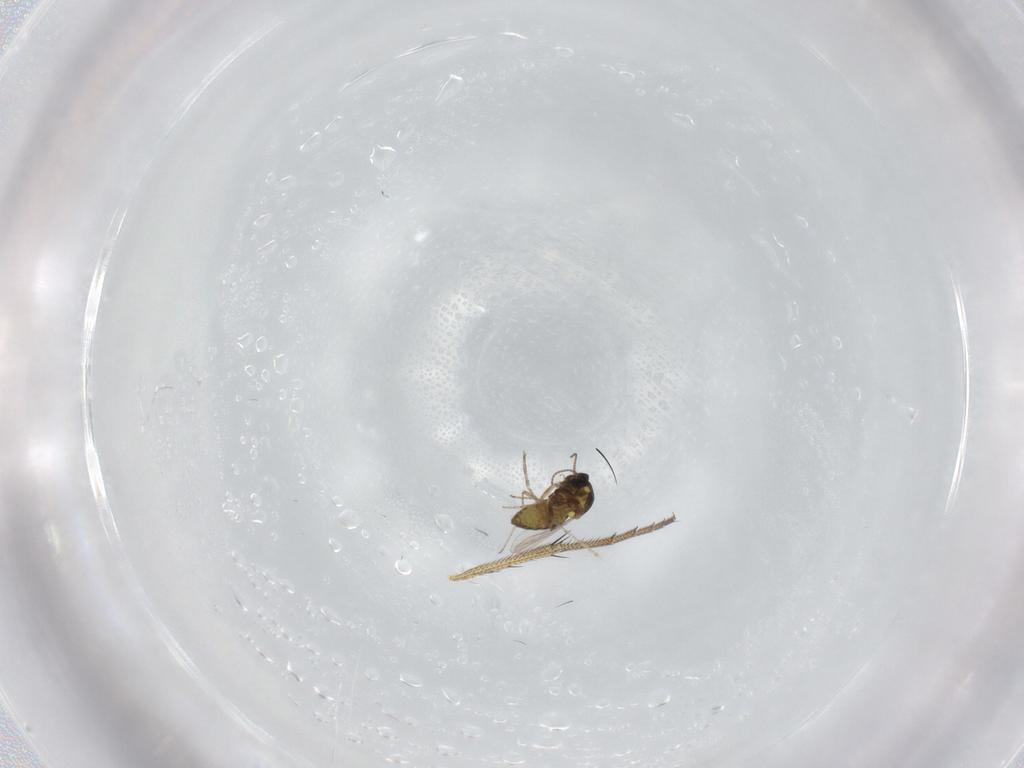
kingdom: Animalia
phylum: Arthropoda
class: Insecta
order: Diptera
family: Ceratopogonidae
